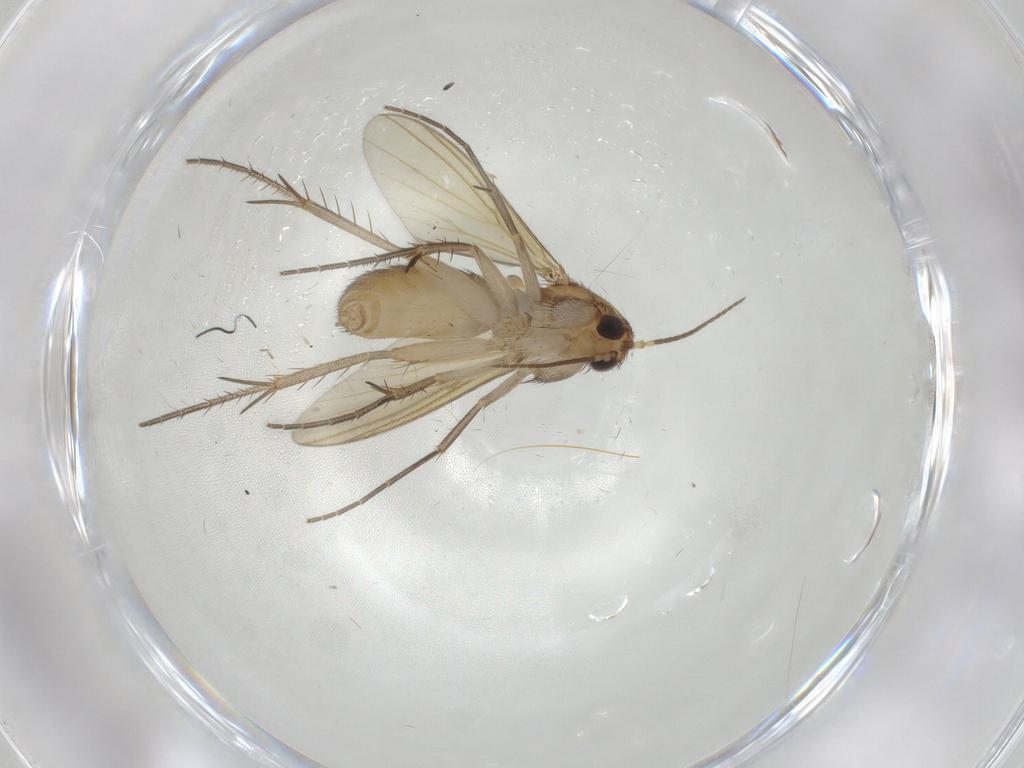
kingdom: Animalia
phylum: Arthropoda
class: Insecta
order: Diptera
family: Mycetophilidae
